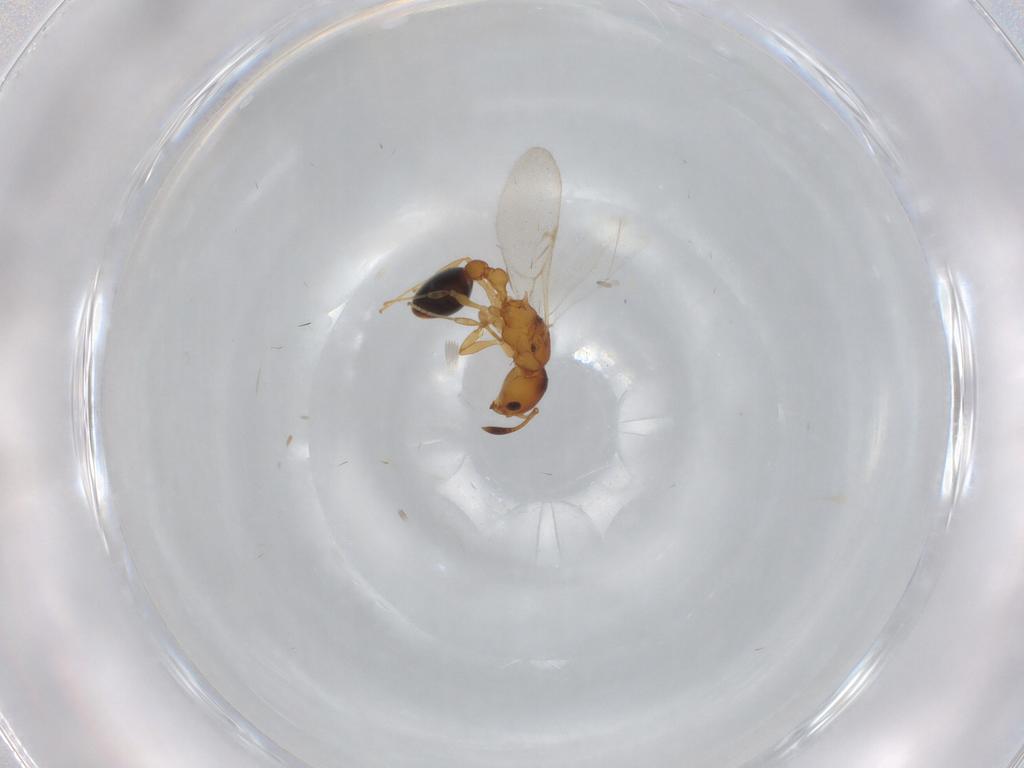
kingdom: Animalia
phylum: Arthropoda
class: Insecta
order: Hymenoptera
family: Formicidae
